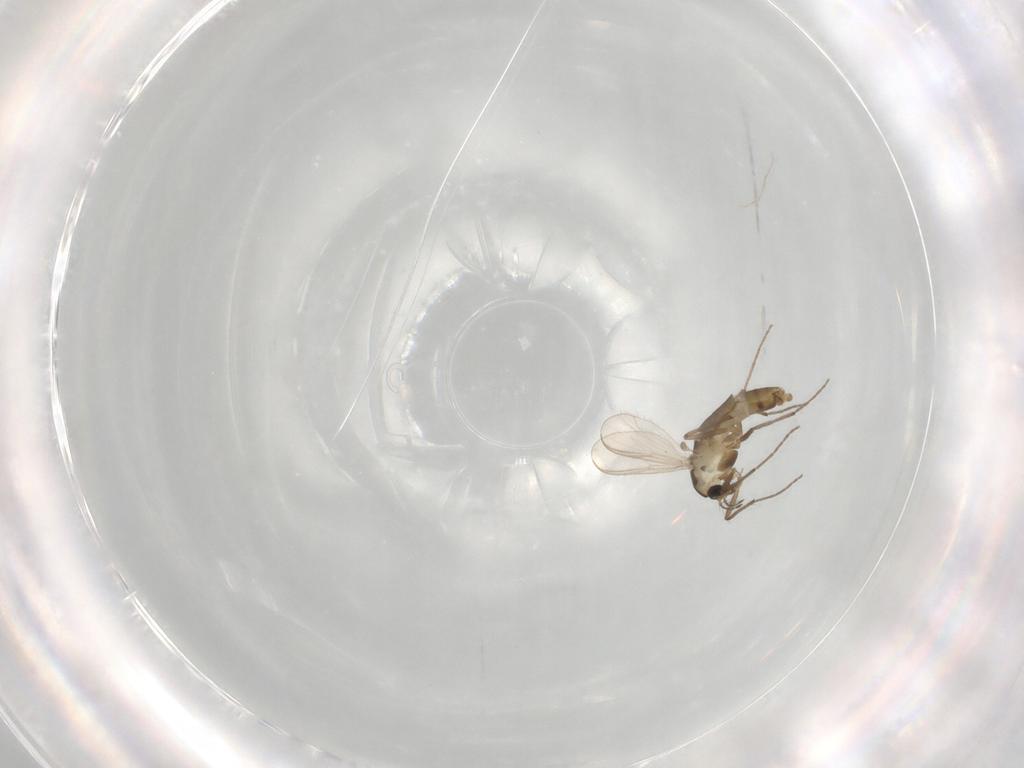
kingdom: Animalia
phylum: Arthropoda
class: Insecta
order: Diptera
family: Chironomidae
